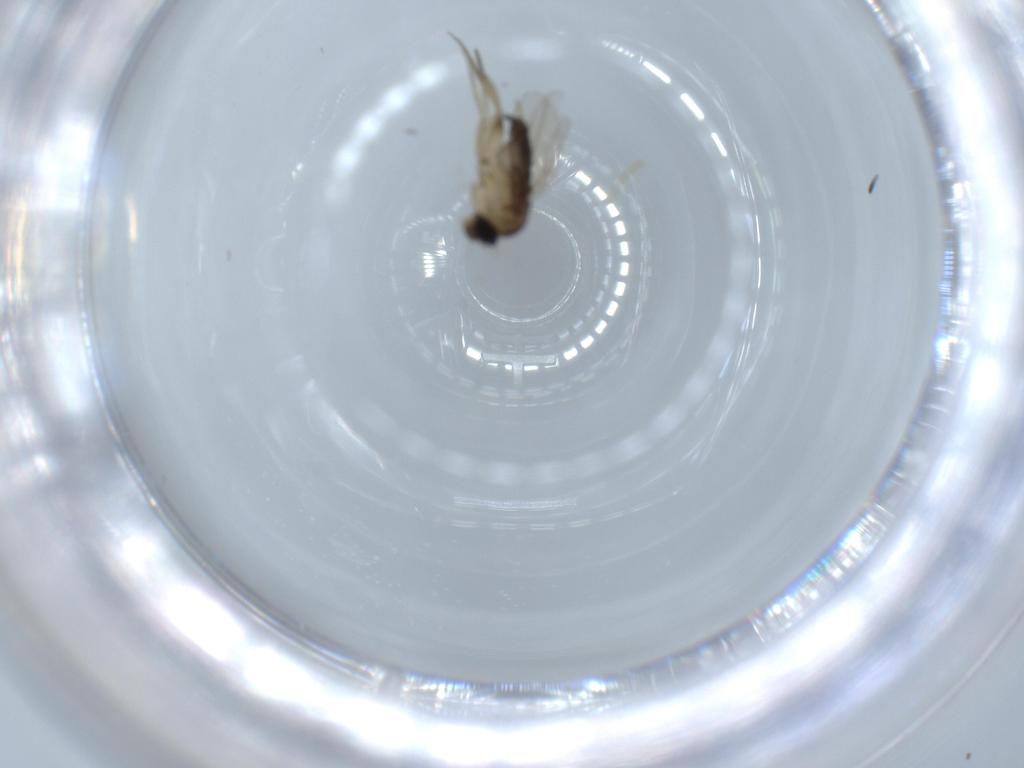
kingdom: Animalia
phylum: Arthropoda
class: Insecta
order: Diptera
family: Phoridae
